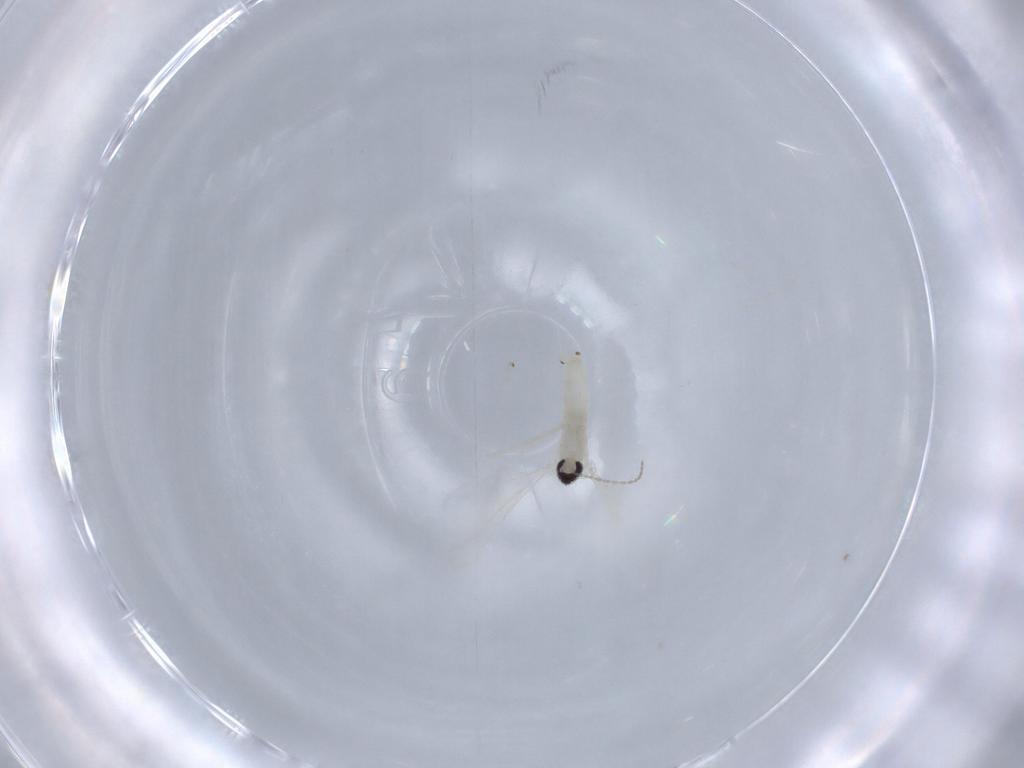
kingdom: Animalia
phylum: Arthropoda
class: Insecta
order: Diptera
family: Cecidomyiidae
